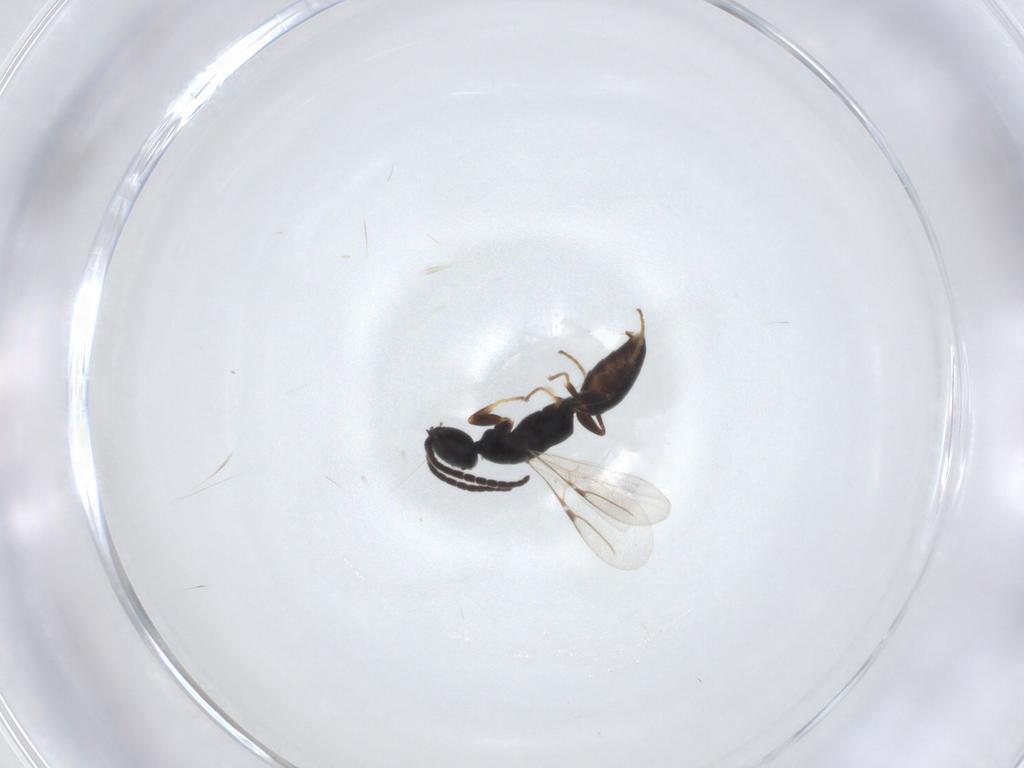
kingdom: Animalia
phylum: Arthropoda
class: Insecta
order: Hymenoptera
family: Bethylidae
